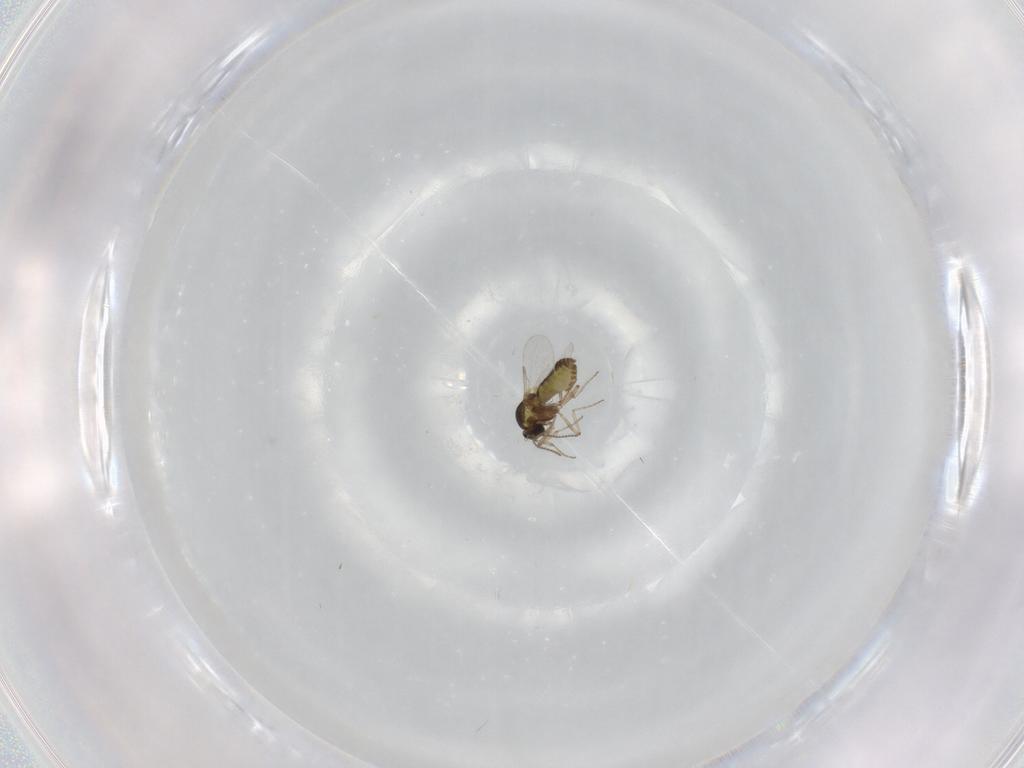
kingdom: Animalia
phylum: Arthropoda
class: Insecta
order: Diptera
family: Ceratopogonidae
